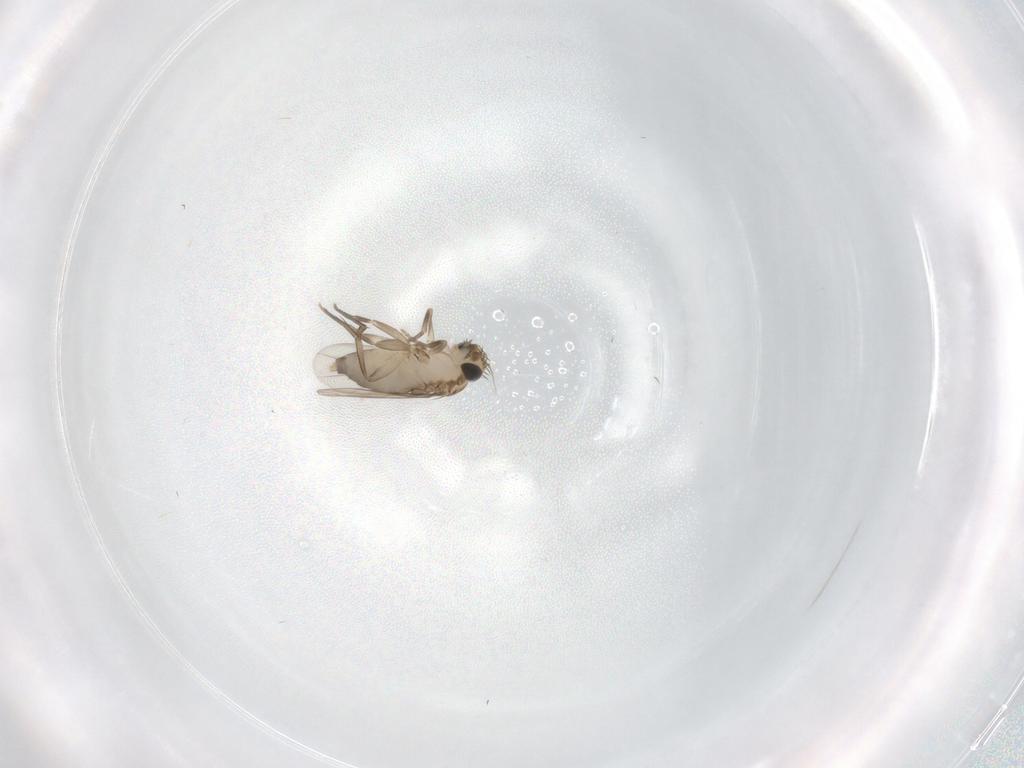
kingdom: Animalia
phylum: Arthropoda
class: Insecta
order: Diptera
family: Phoridae
